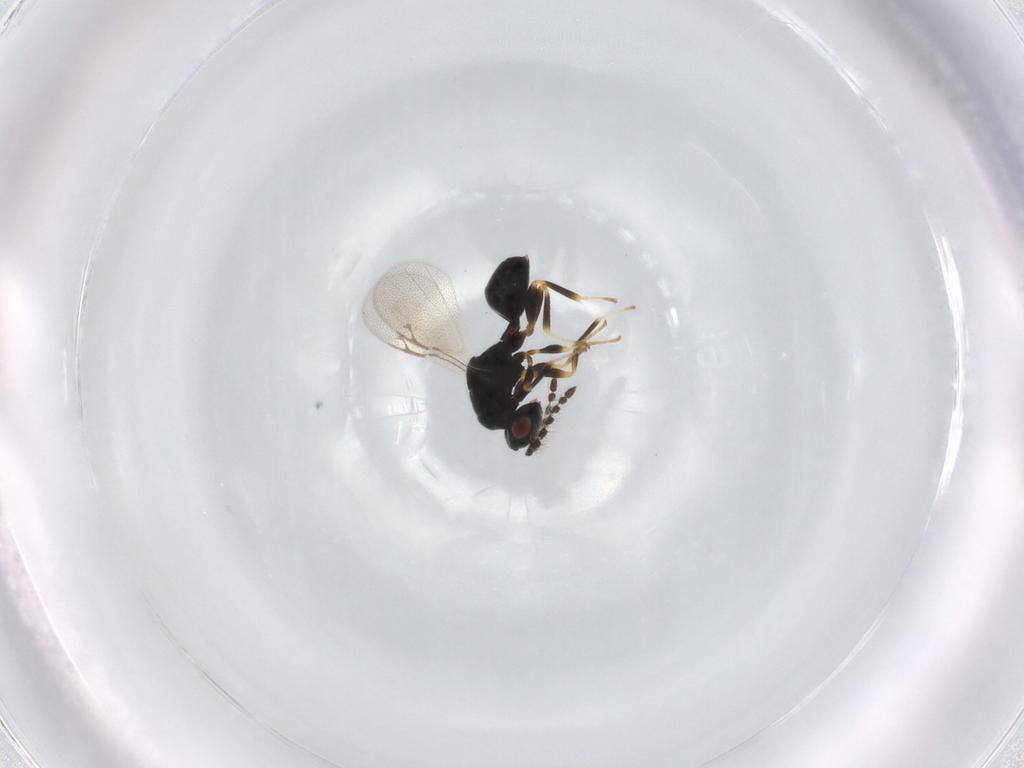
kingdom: Animalia
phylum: Arthropoda
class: Insecta
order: Hymenoptera
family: Eurytomidae
